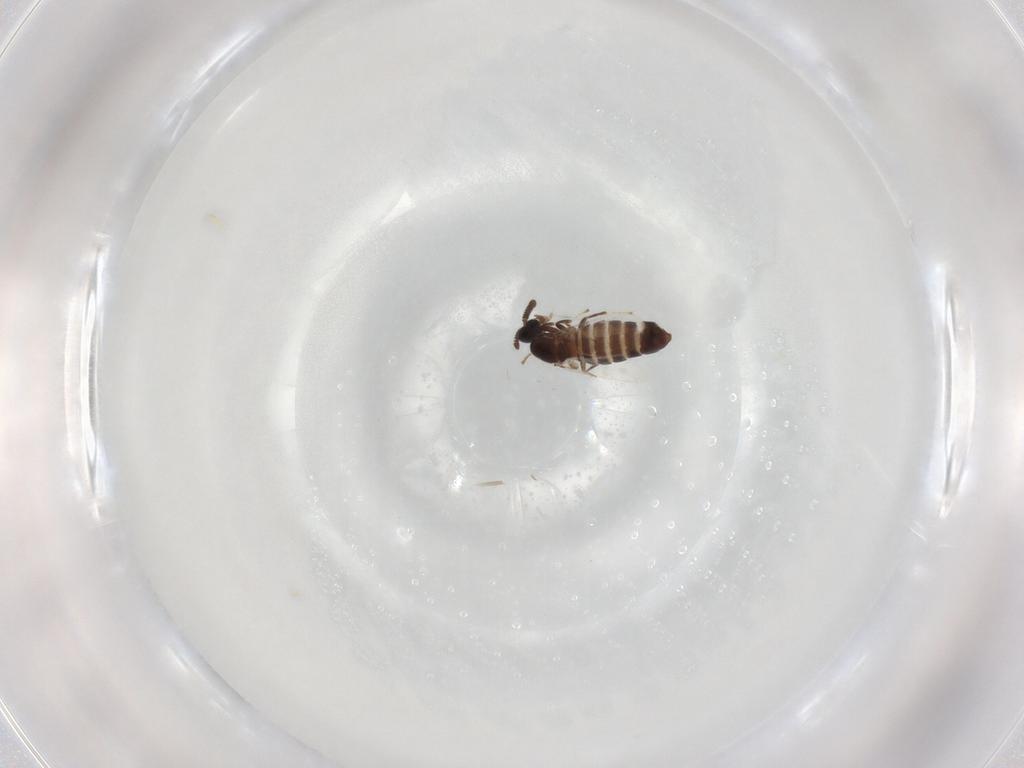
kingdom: Animalia
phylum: Arthropoda
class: Insecta
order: Diptera
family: Scatopsidae
